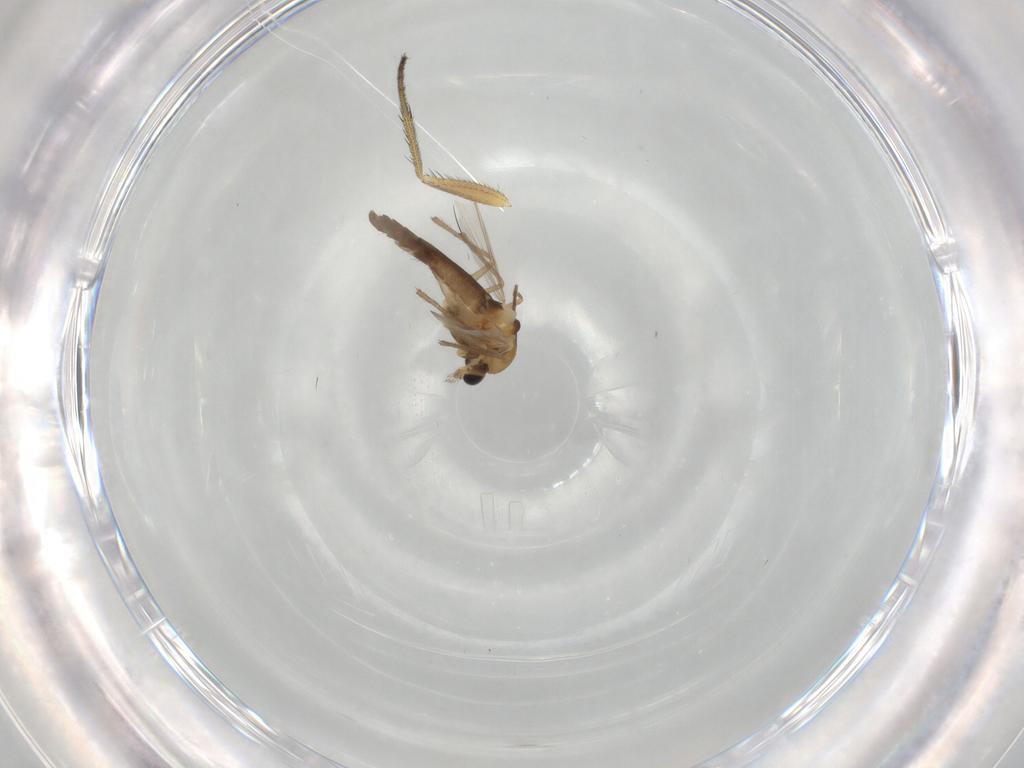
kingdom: Animalia
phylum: Arthropoda
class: Insecta
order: Diptera
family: Chironomidae
